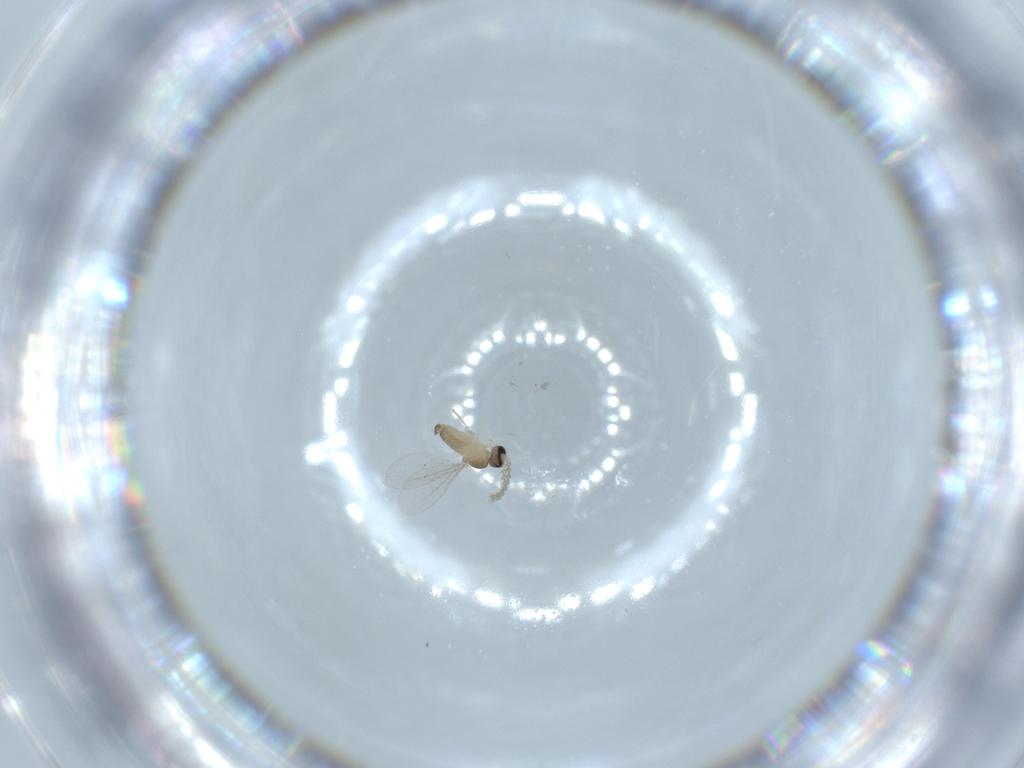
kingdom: Animalia
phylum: Arthropoda
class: Insecta
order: Diptera
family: Cecidomyiidae
